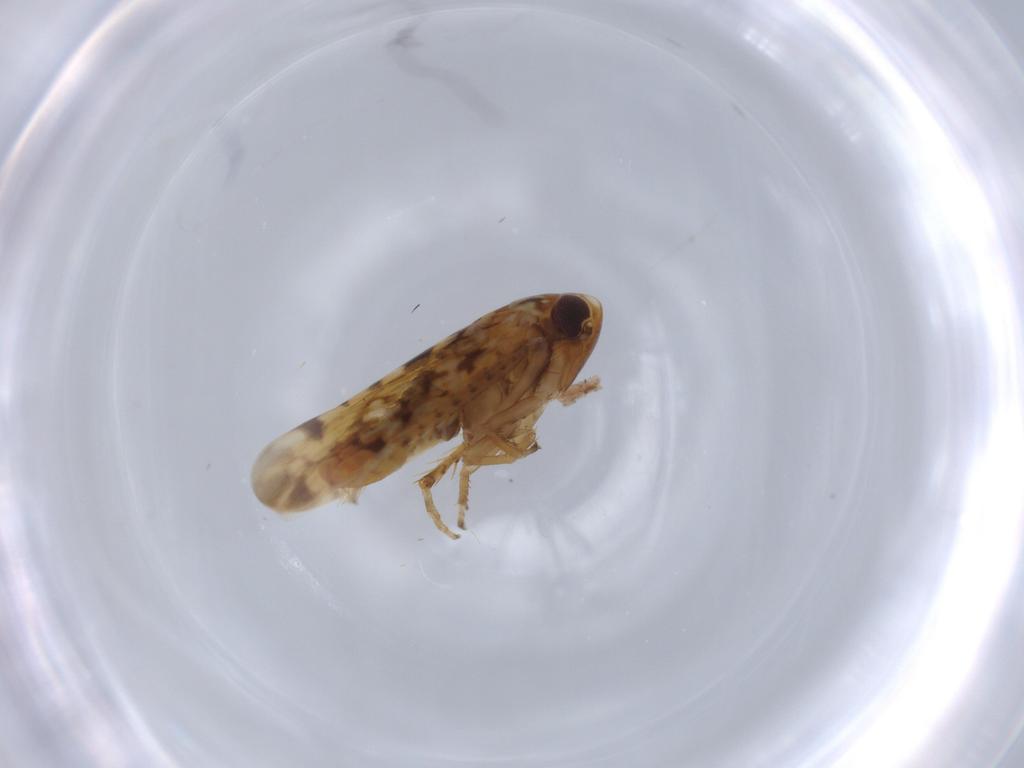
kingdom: Animalia
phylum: Arthropoda
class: Insecta
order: Hemiptera
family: Cicadellidae
